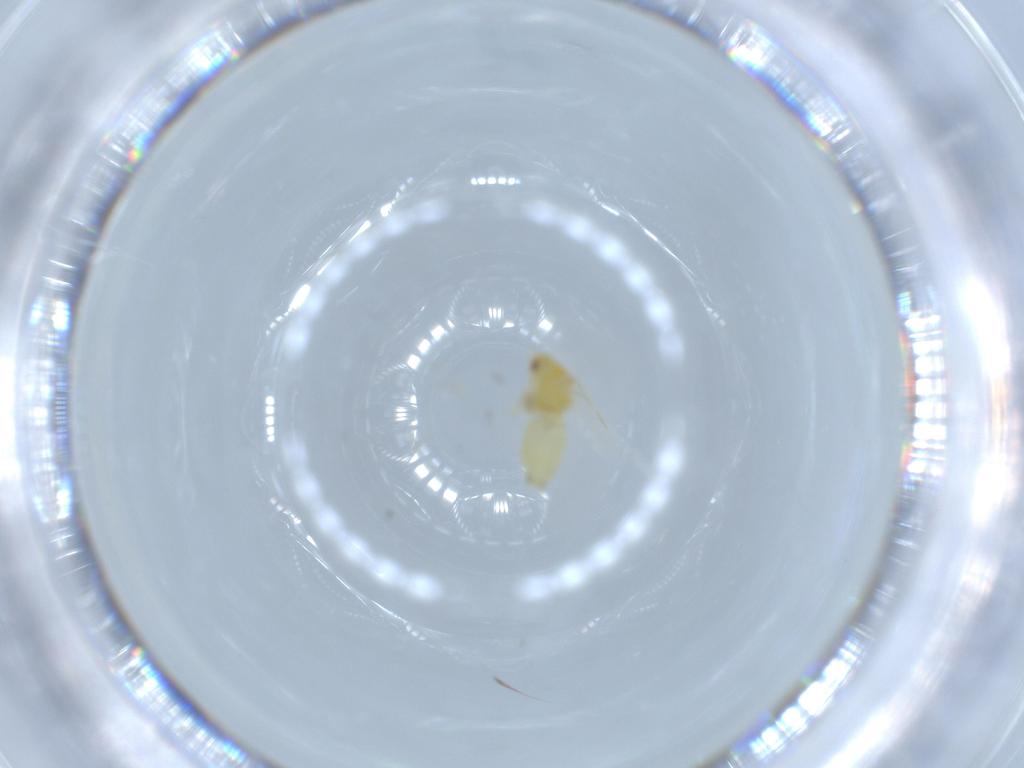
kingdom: Animalia
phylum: Arthropoda
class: Insecta
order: Hemiptera
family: Aleyrodidae
